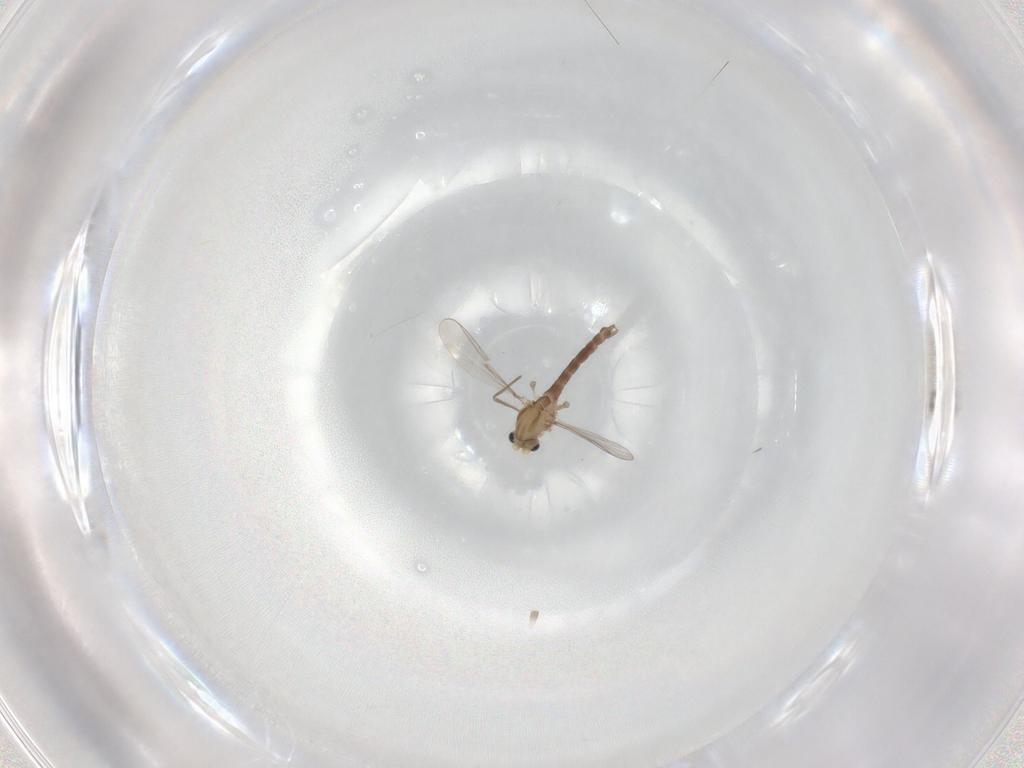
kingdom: Animalia
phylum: Arthropoda
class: Insecta
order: Diptera
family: Chironomidae
